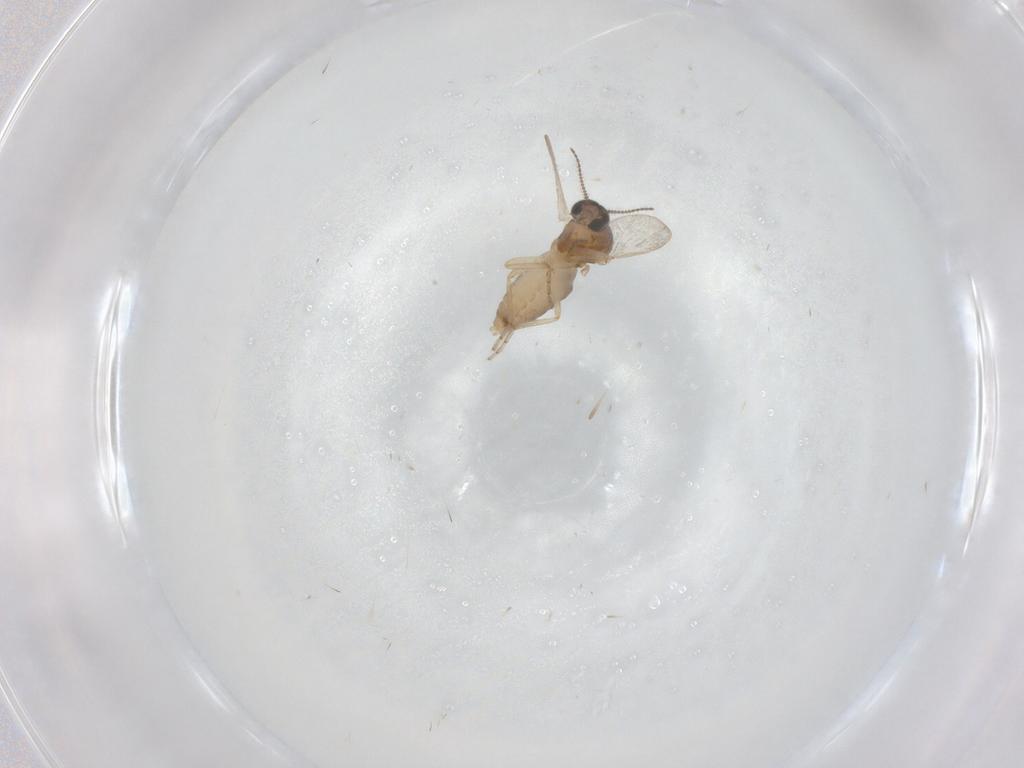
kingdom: Animalia
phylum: Arthropoda
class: Insecta
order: Diptera
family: Ceratopogonidae
